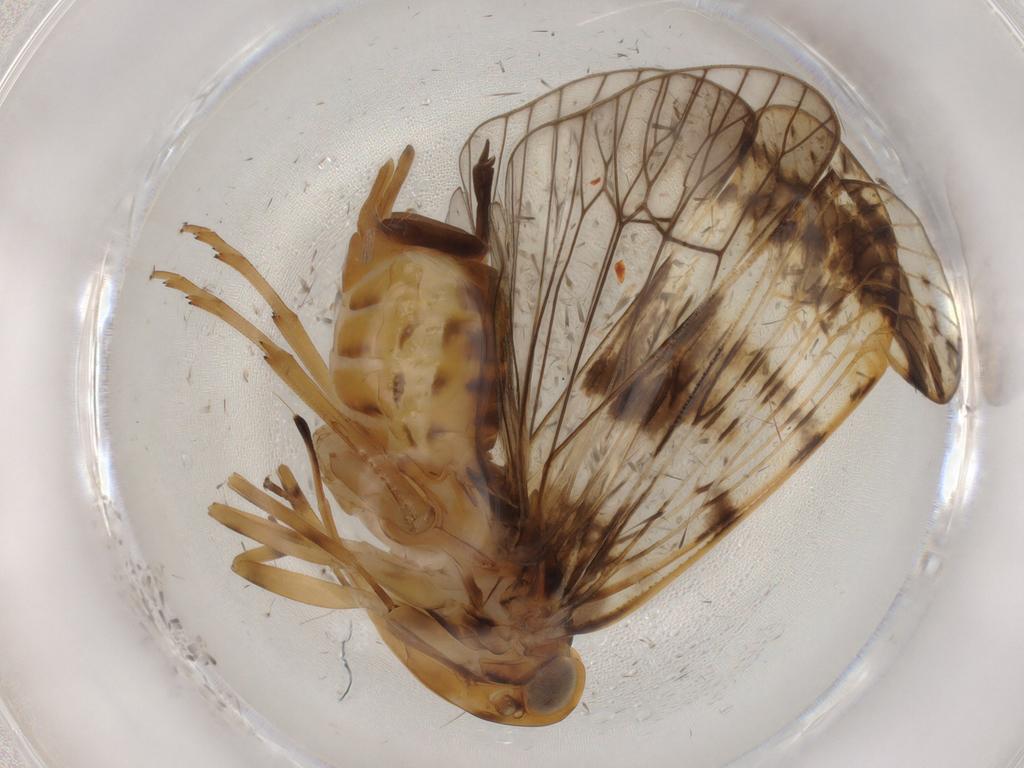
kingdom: Animalia
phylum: Arthropoda
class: Insecta
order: Hemiptera
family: Cixiidae
